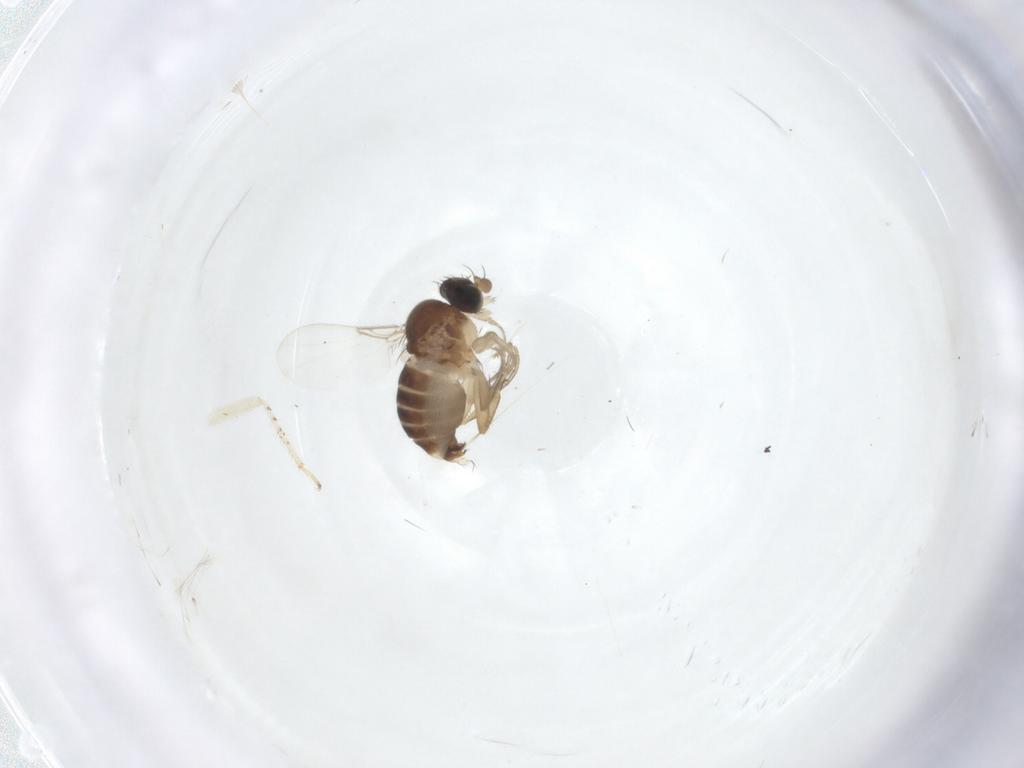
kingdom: Animalia
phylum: Arthropoda
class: Insecta
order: Diptera
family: Phoridae
